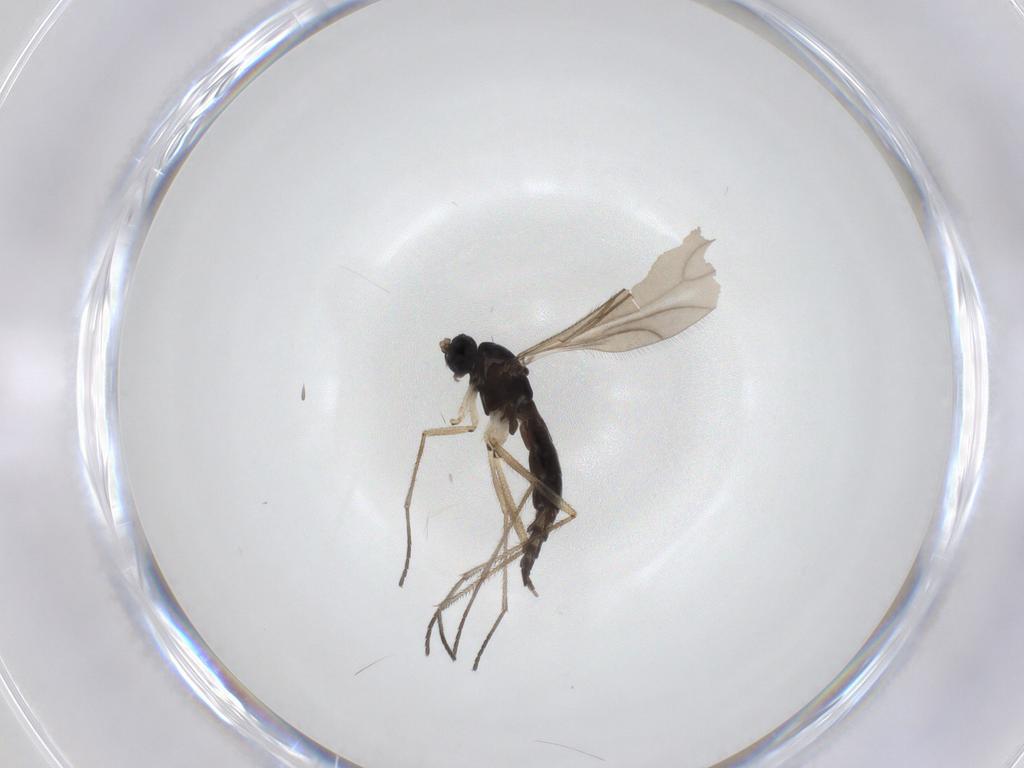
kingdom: Animalia
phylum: Arthropoda
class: Insecta
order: Diptera
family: Sciaridae
